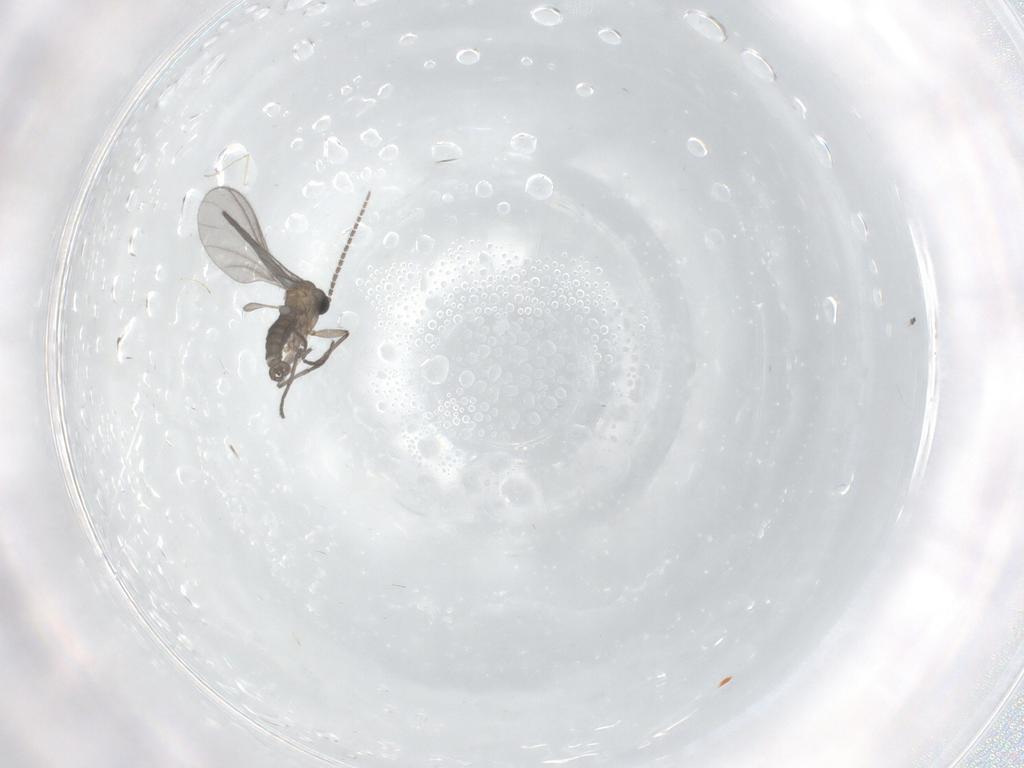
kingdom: Animalia
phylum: Arthropoda
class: Insecta
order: Diptera
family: Sciaridae
